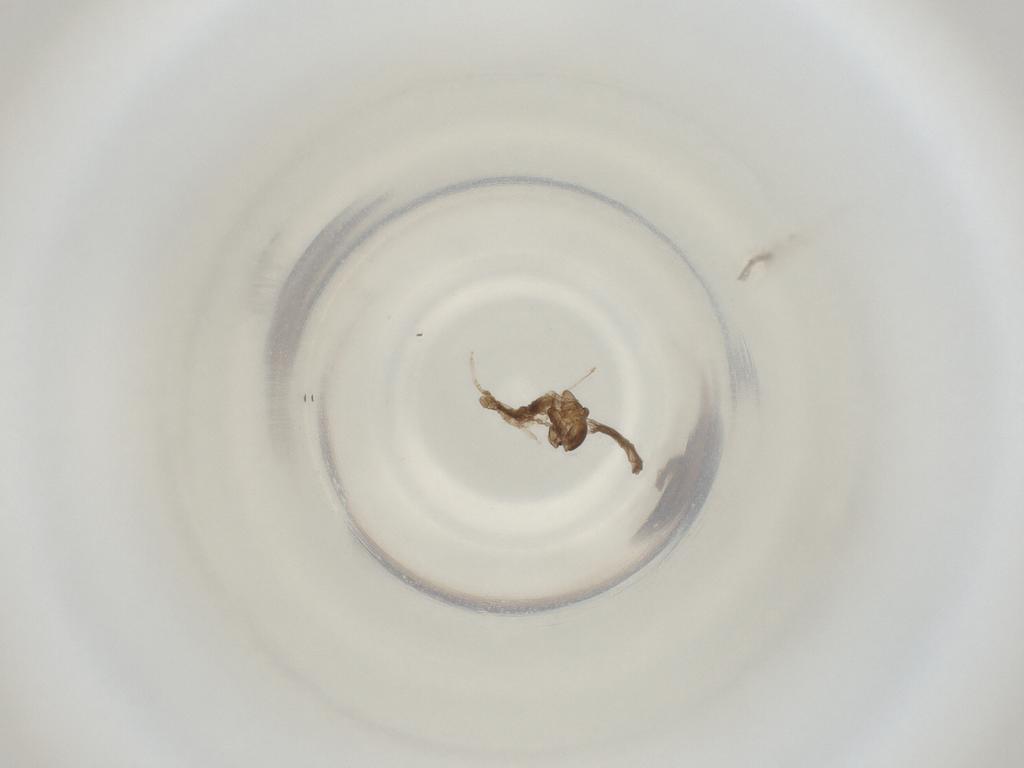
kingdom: Animalia
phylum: Arthropoda
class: Insecta
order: Diptera
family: Cecidomyiidae
